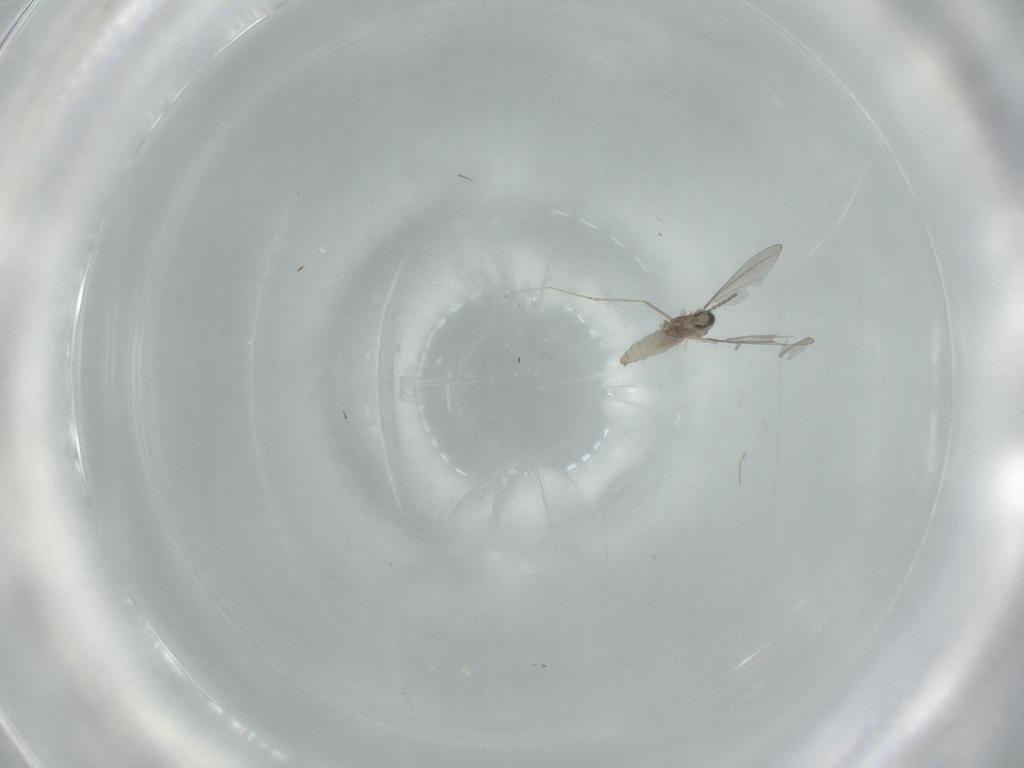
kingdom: Animalia
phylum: Arthropoda
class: Insecta
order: Diptera
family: Cecidomyiidae
